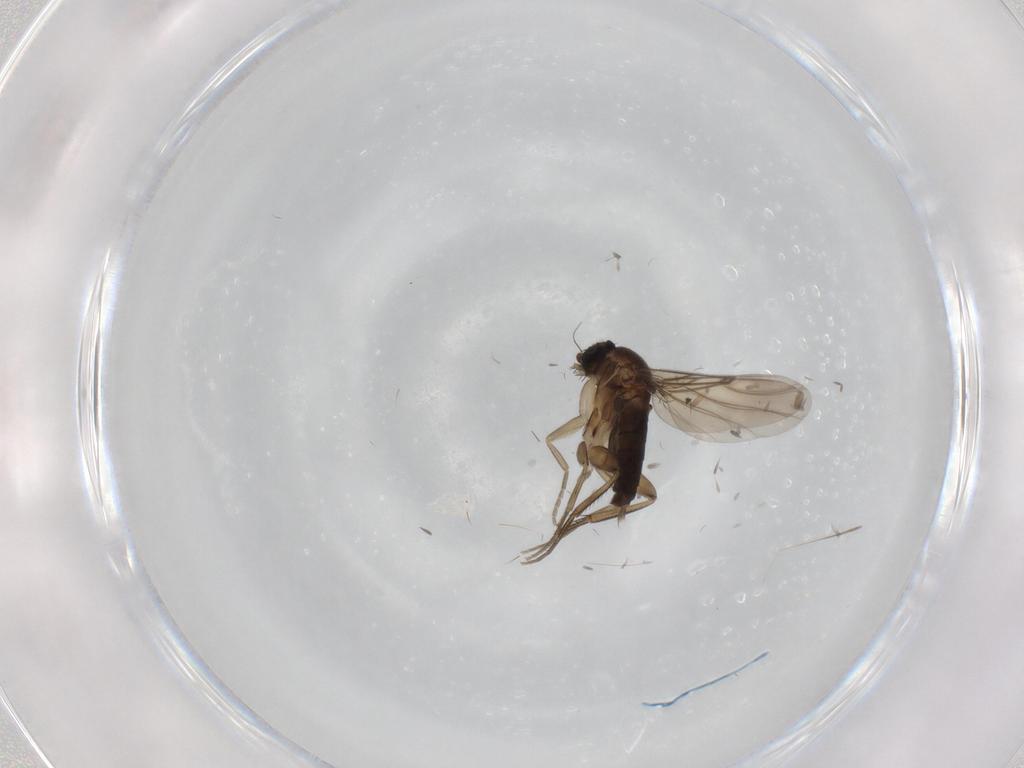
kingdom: Animalia
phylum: Arthropoda
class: Insecta
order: Diptera
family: Phoridae
